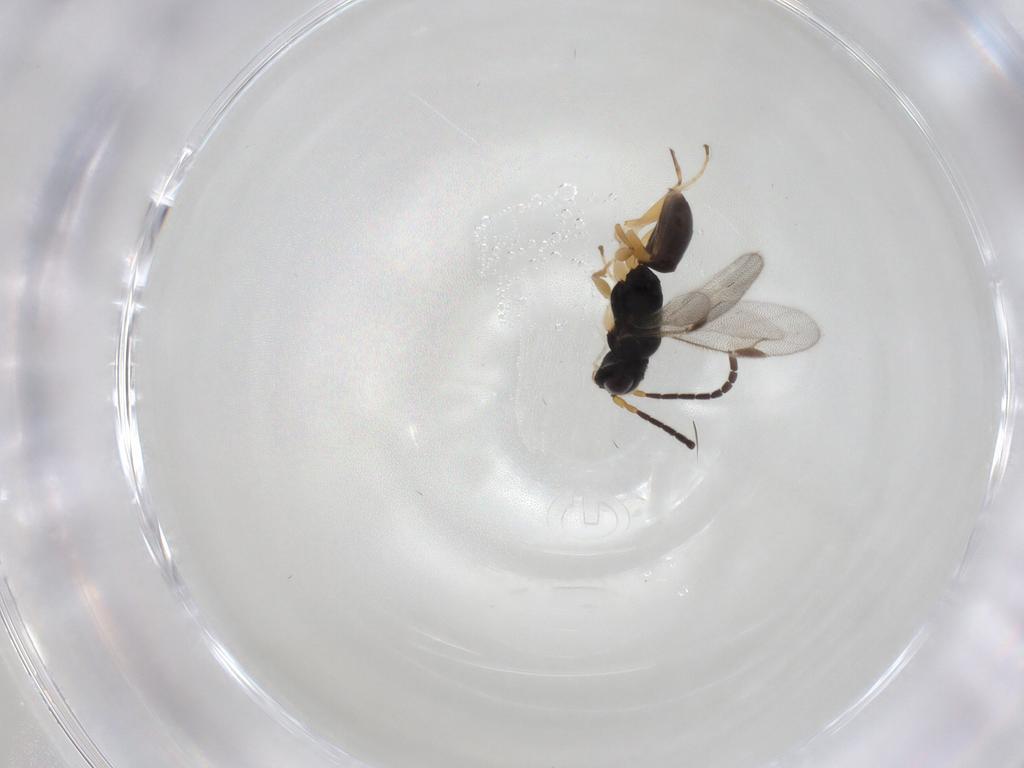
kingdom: Animalia
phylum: Arthropoda
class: Insecta
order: Hymenoptera
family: Dryinidae
